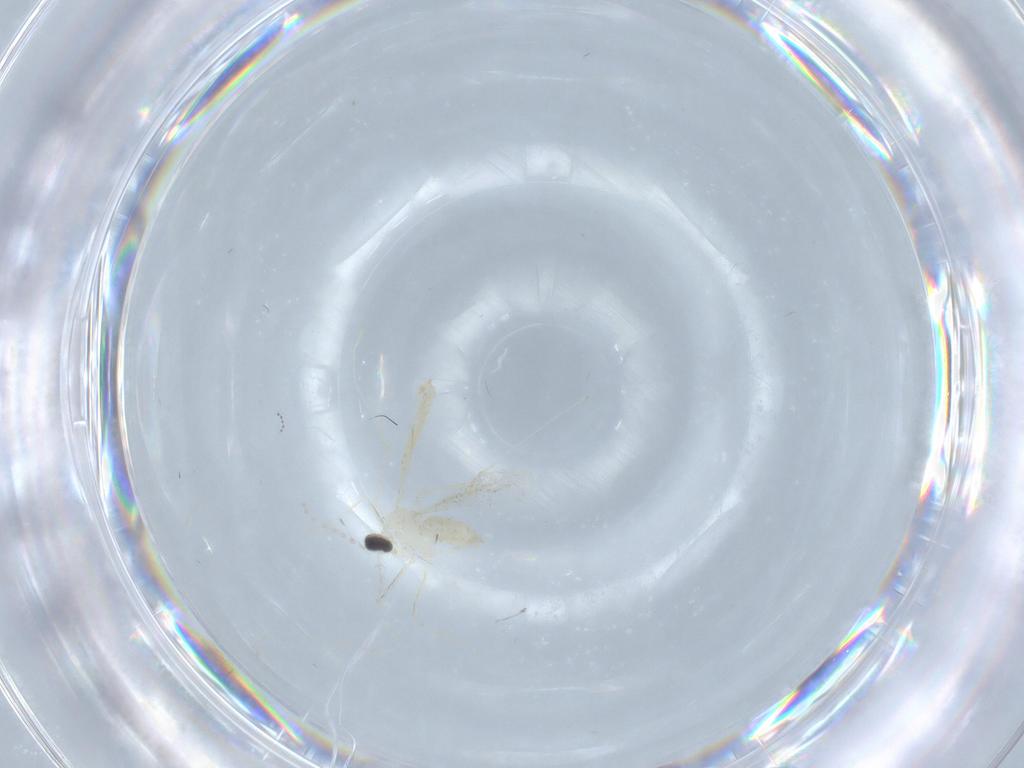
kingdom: Animalia
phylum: Arthropoda
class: Insecta
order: Diptera
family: Cecidomyiidae
